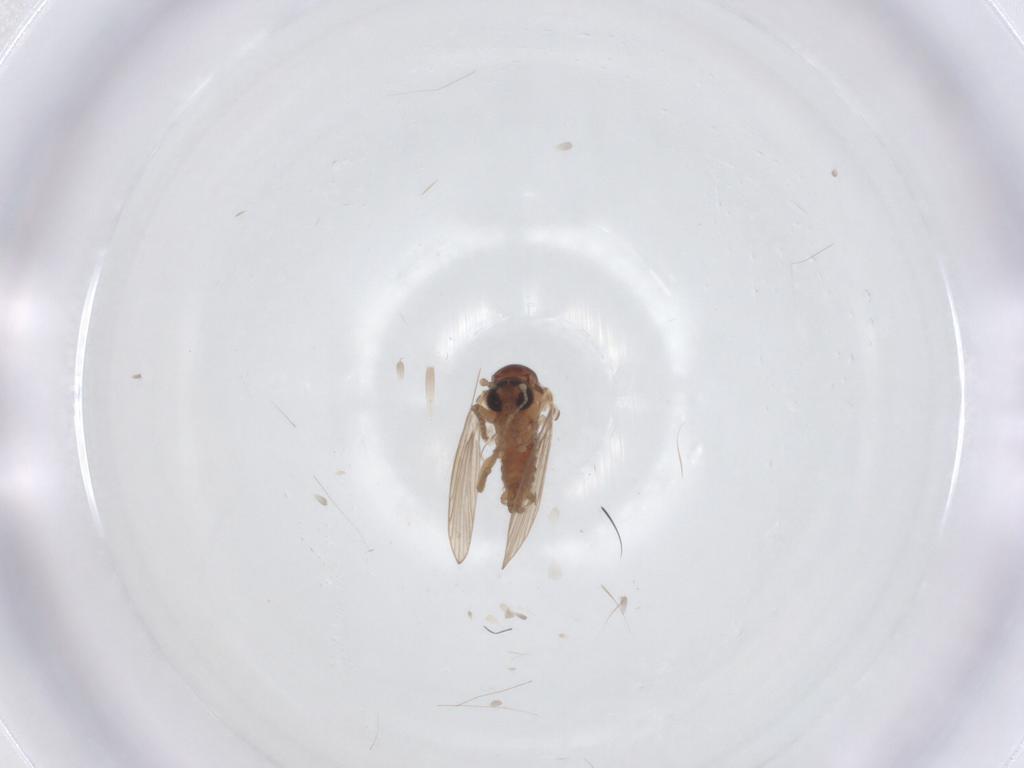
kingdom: Animalia
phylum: Arthropoda
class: Insecta
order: Diptera
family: Psychodidae
